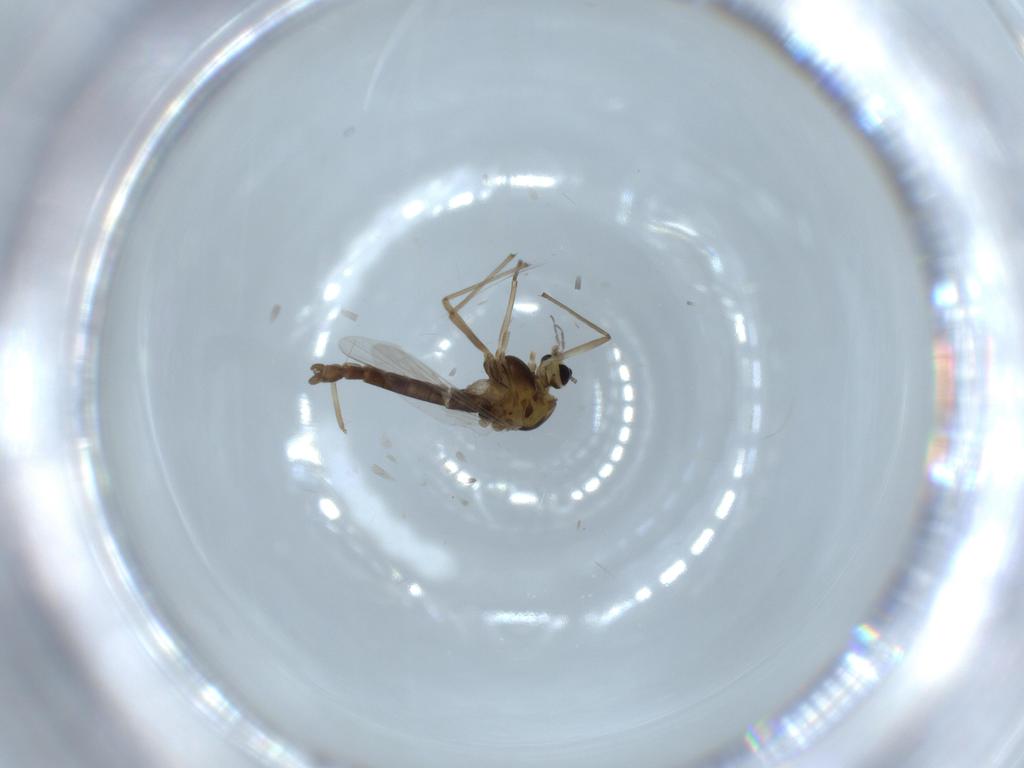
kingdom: Animalia
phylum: Arthropoda
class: Insecta
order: Diptera
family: Chironomidae
